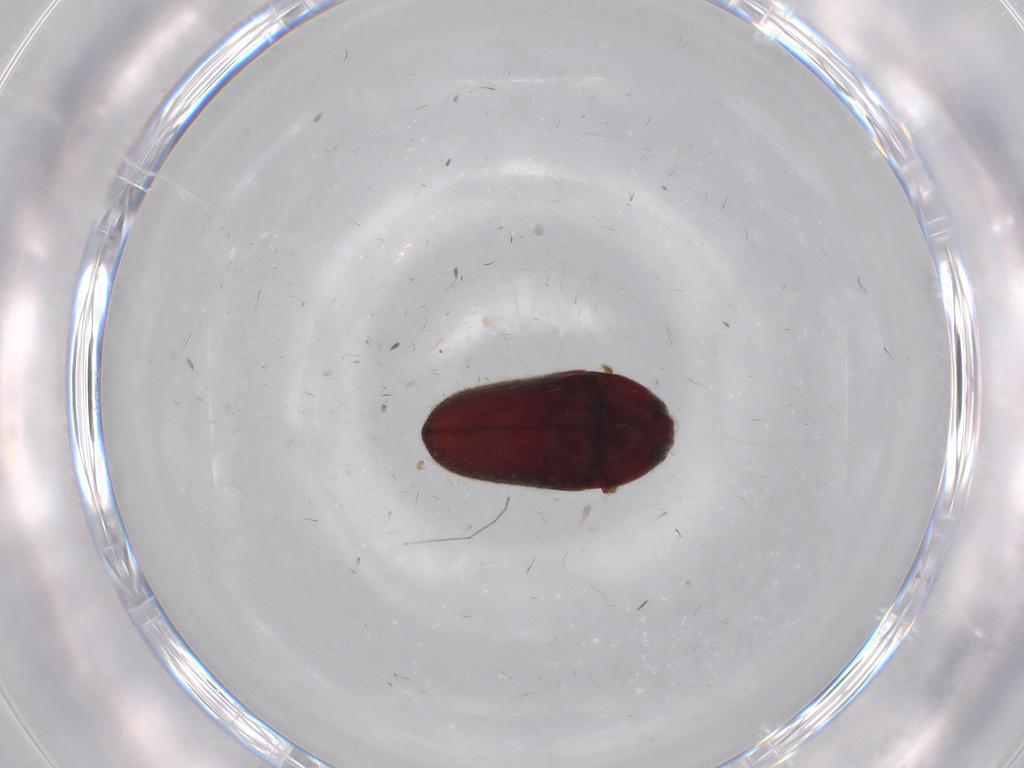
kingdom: Animalia
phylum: Arthropoda
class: Insecta
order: Coleoptera
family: Throscidae
